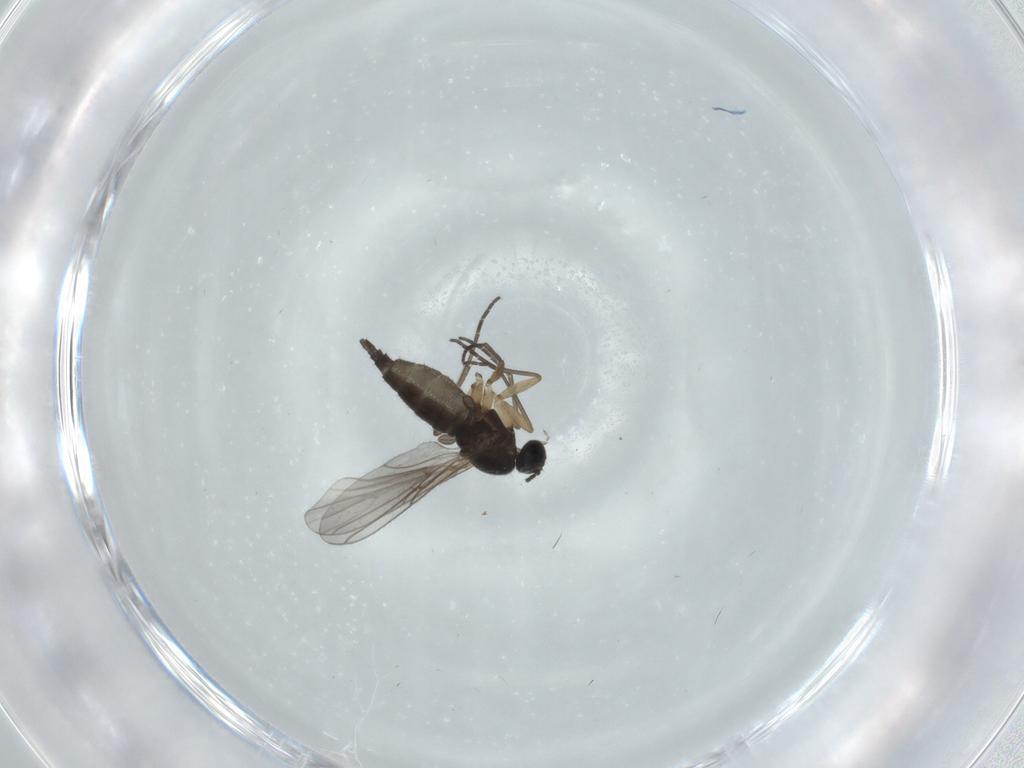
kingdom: Animalia
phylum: Arthropoda
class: Insecta
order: Diptera
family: Sciaridae
